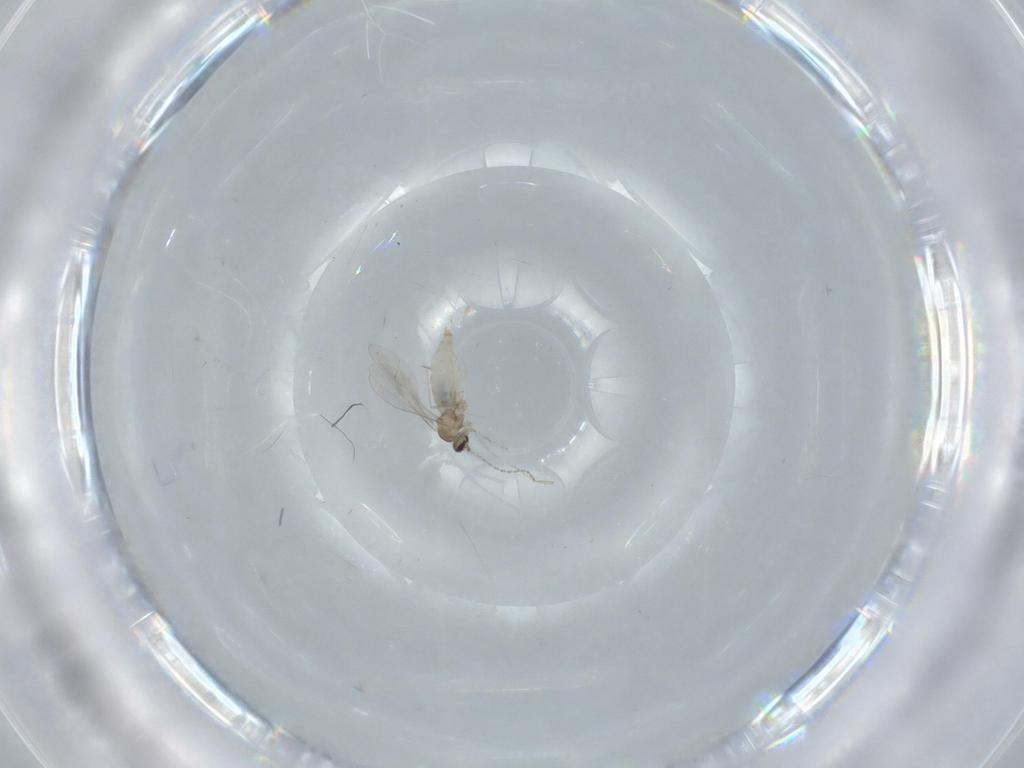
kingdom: Animalia
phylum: Arthropoda
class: Insecta
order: Diptera
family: Cecidomyiidae
